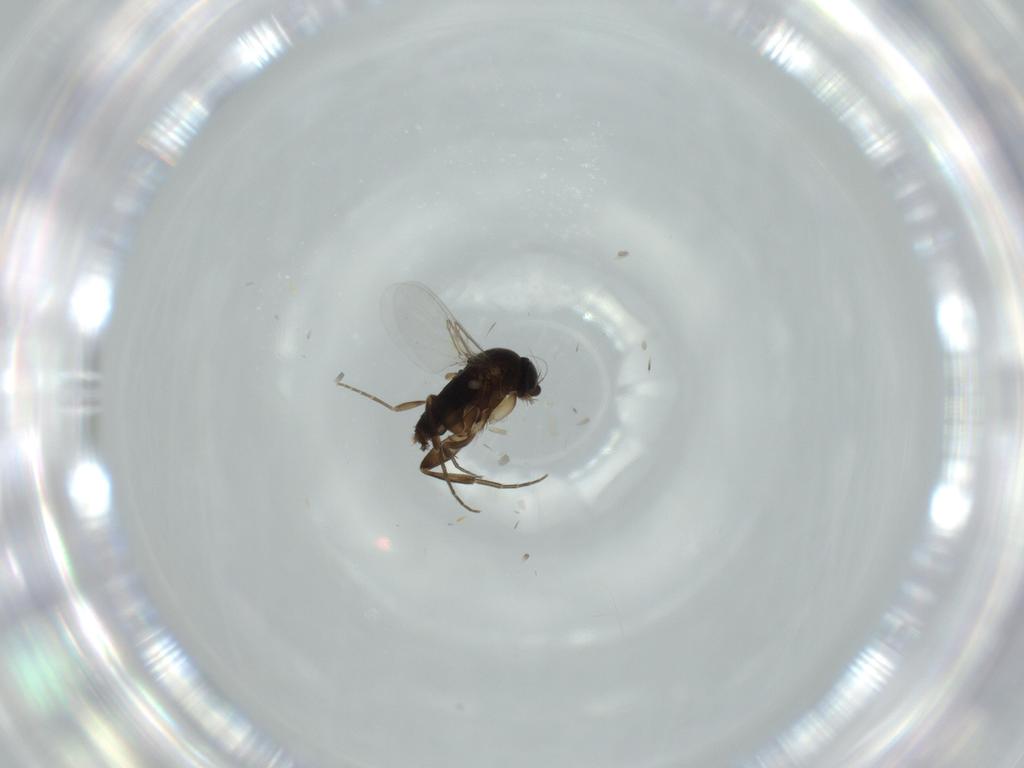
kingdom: Animalia
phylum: Arthropoda
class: Insecta
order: Diptera
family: Phoridae
